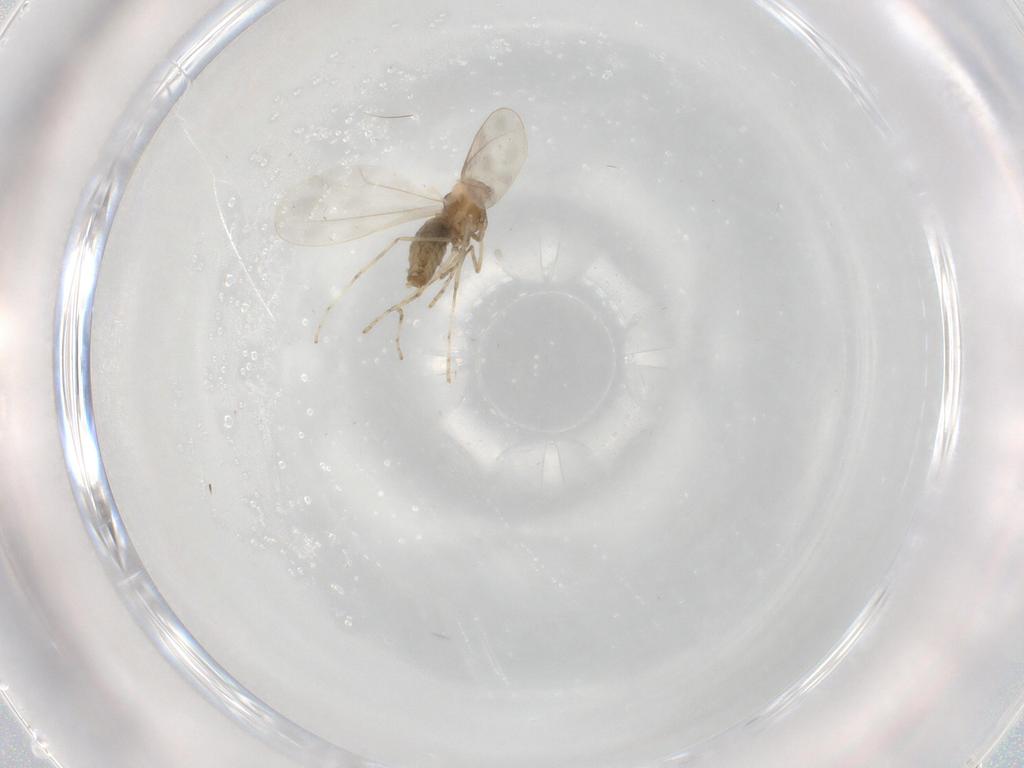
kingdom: Animalia
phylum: Arthropoda
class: Insecta
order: Diptera
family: Cecidomyiidae
